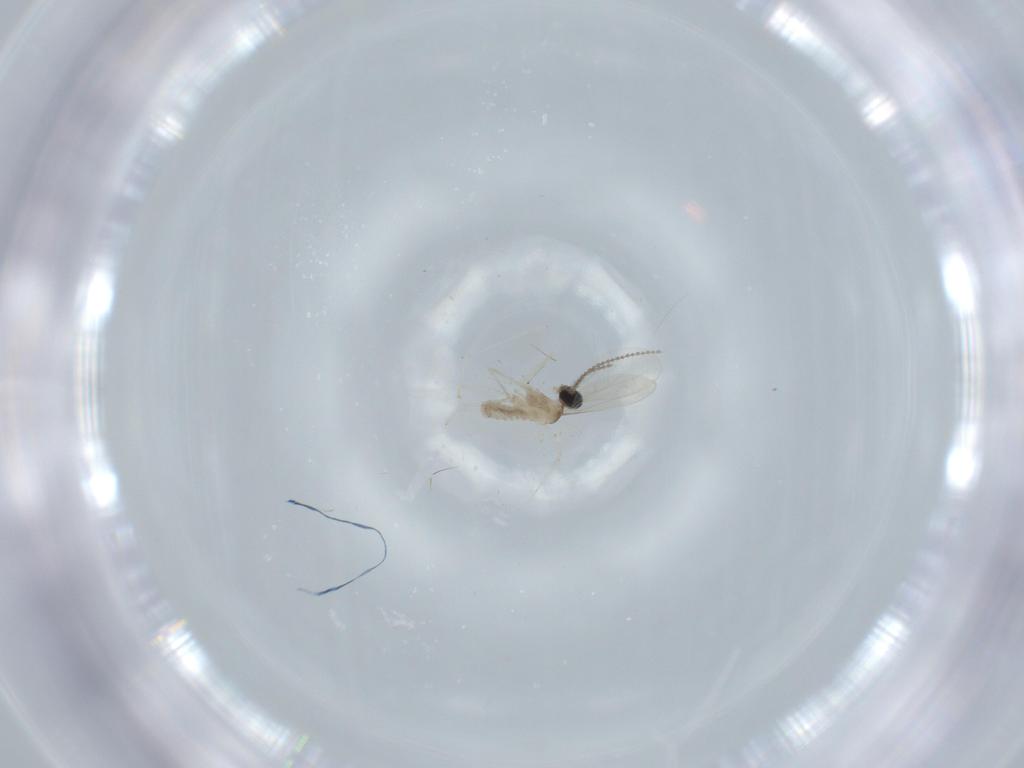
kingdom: Animalia
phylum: Arthropoda
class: Insecta
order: Diptera
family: Cecidomyiidae
